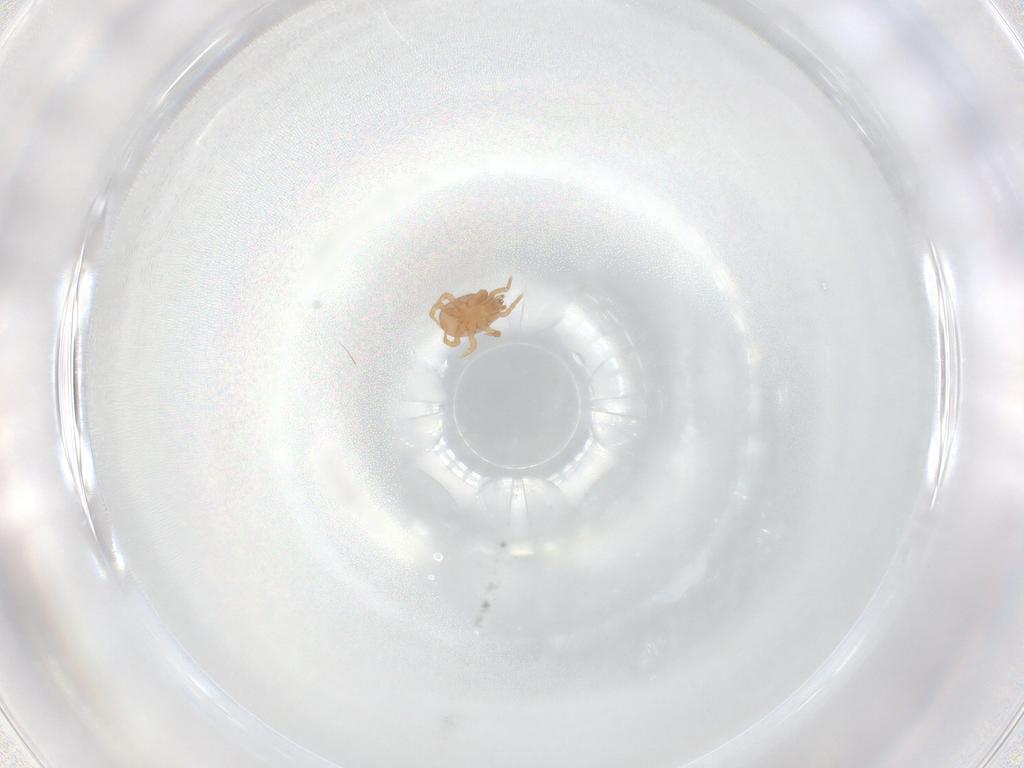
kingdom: Animalia
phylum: Arthropoda
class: Arachnida
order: Mesostigmata
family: Eviphididae
